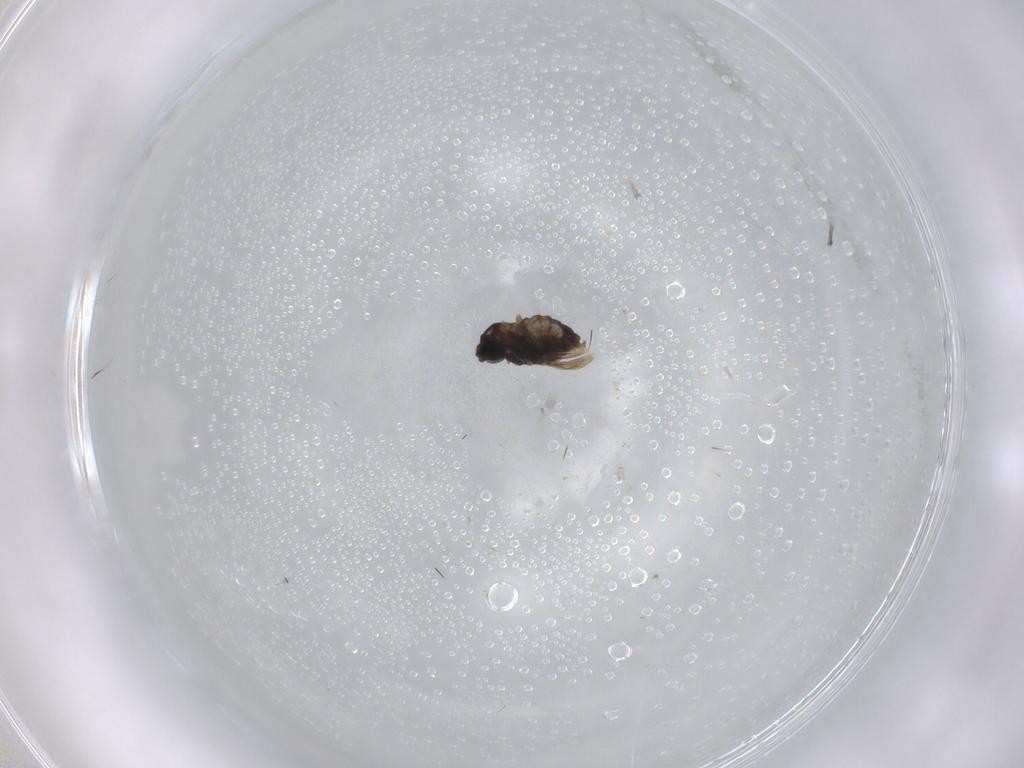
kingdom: Animalia
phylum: Arthropoda
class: Insecta
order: Diptera
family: Cecidomyiidae
